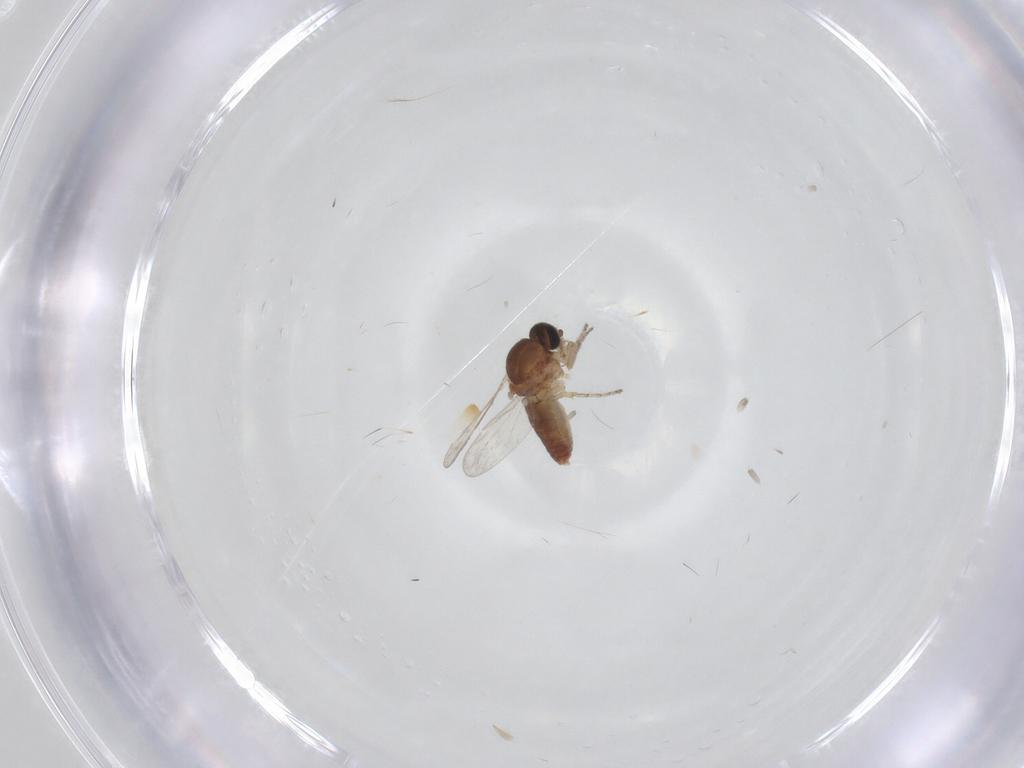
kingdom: Animalia
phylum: Arthropoda
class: Insecta
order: Diptera
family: Ceratopogonidae
